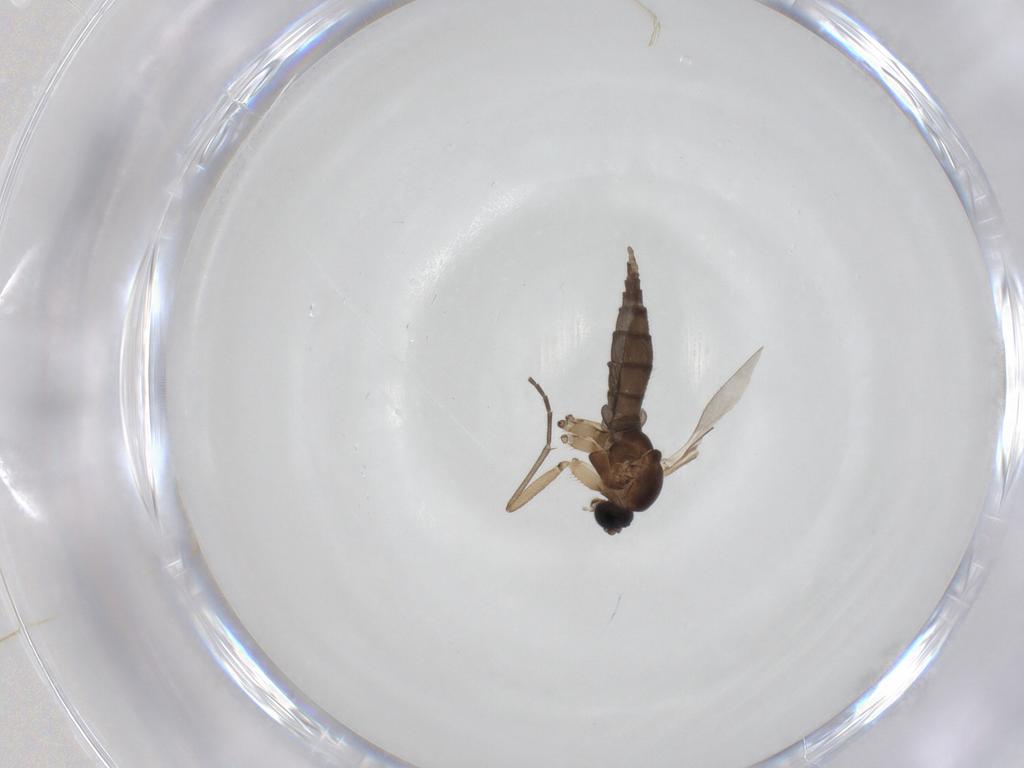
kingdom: Animalia
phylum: Arthropoda
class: Insecta
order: Diptera
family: Sciaridae
